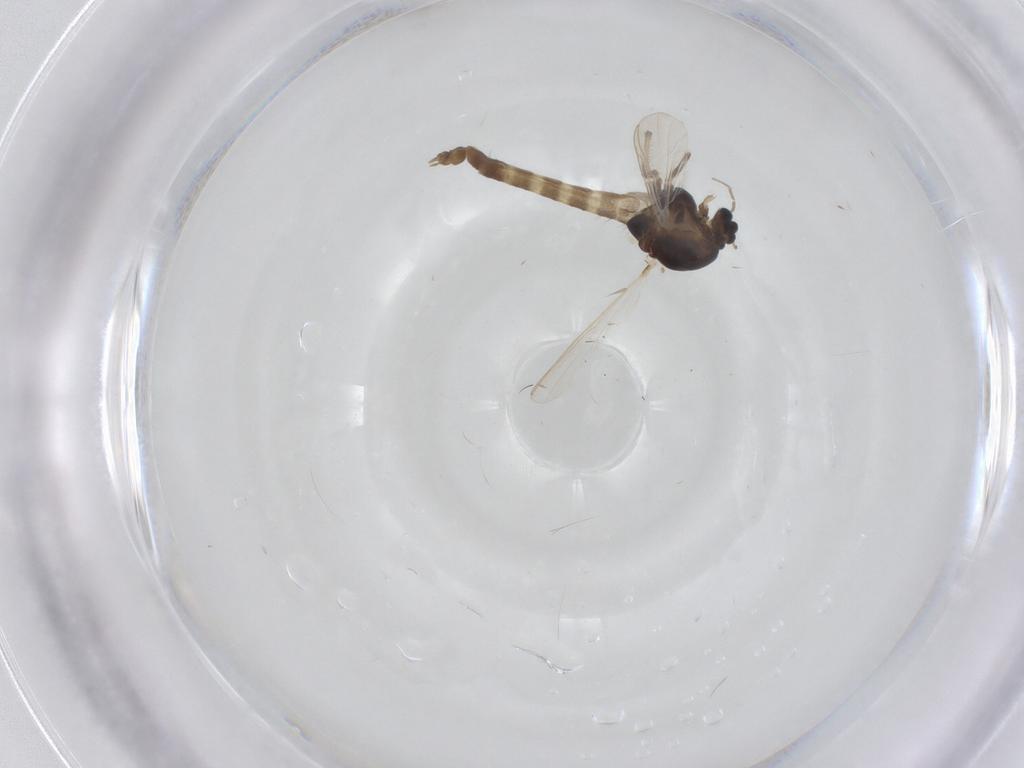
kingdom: Animalia
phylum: Arthropoda
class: Insecta
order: Diptera
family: Chironomidae
